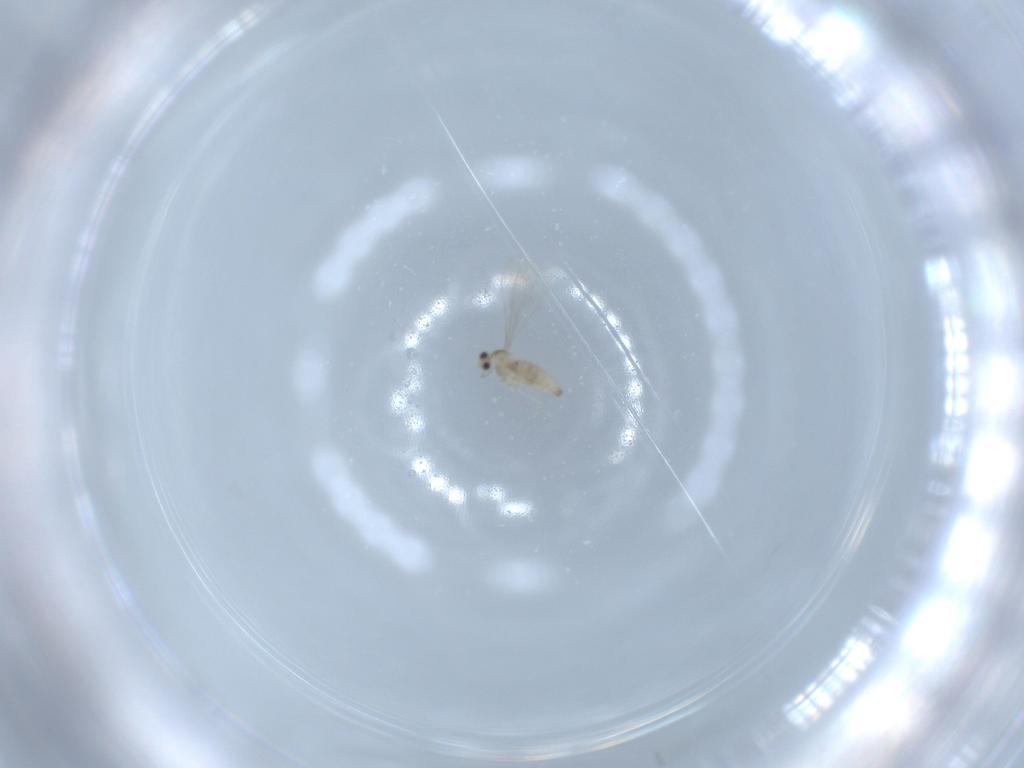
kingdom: Animalia
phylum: Arthropoda
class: Insecta
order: Diptera
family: Cecidomyiidae
